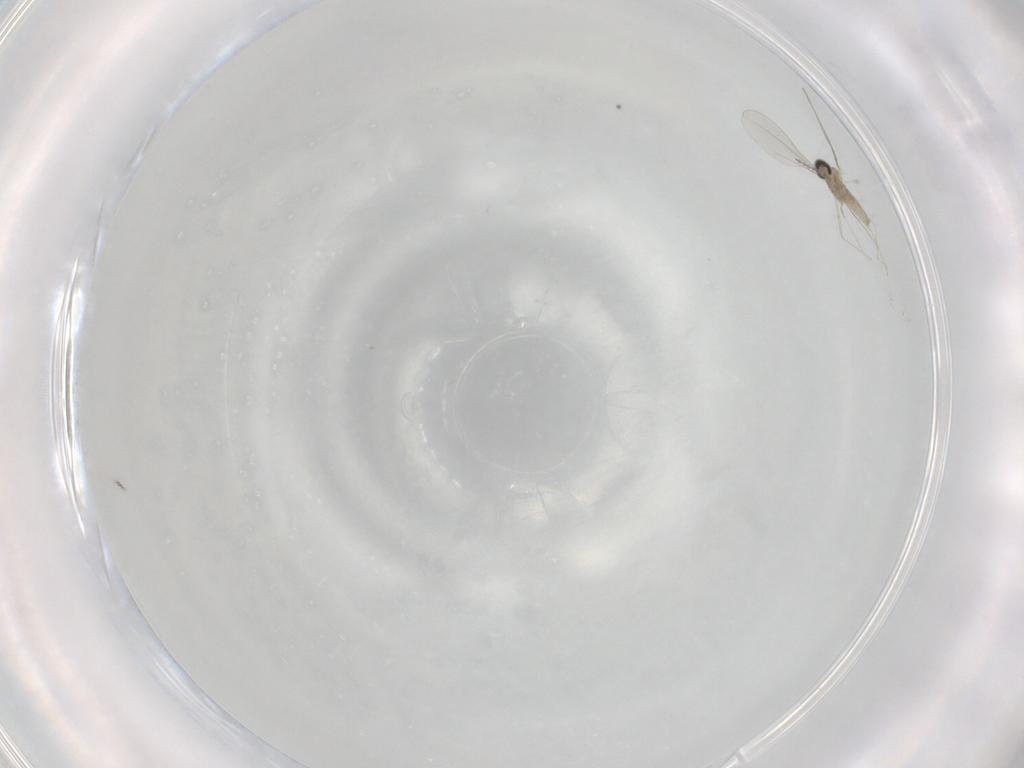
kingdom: Animalia
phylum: Arthropoda
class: Insecta
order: Diptera
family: Cecidomyiidae
